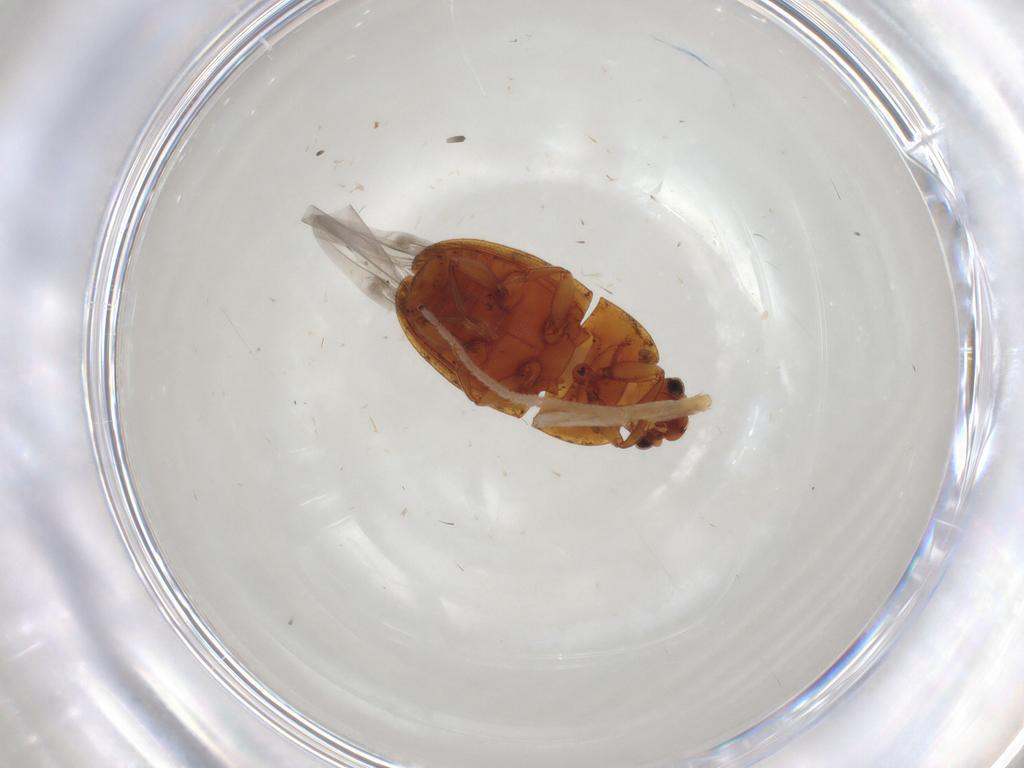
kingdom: Animalia
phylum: Arthropoda
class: Insecta
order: Coleoptera
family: Nitidulidae
